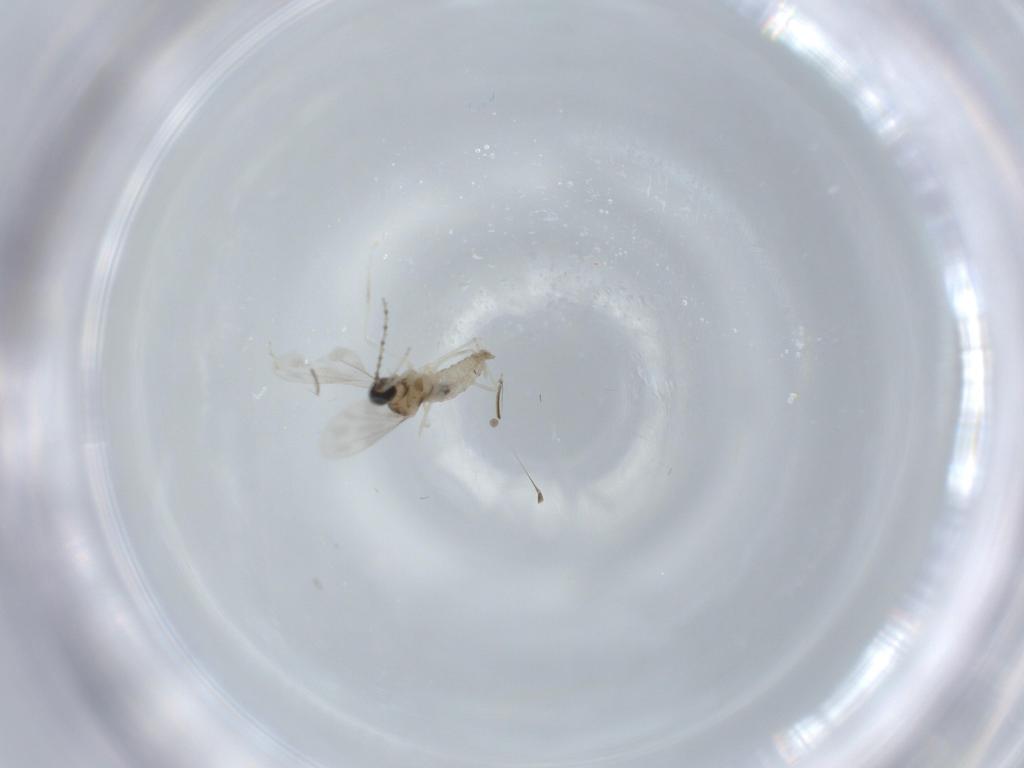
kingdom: Animalia
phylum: Arthropoda
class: Insecta
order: Diptera
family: Cecidomyiidae
